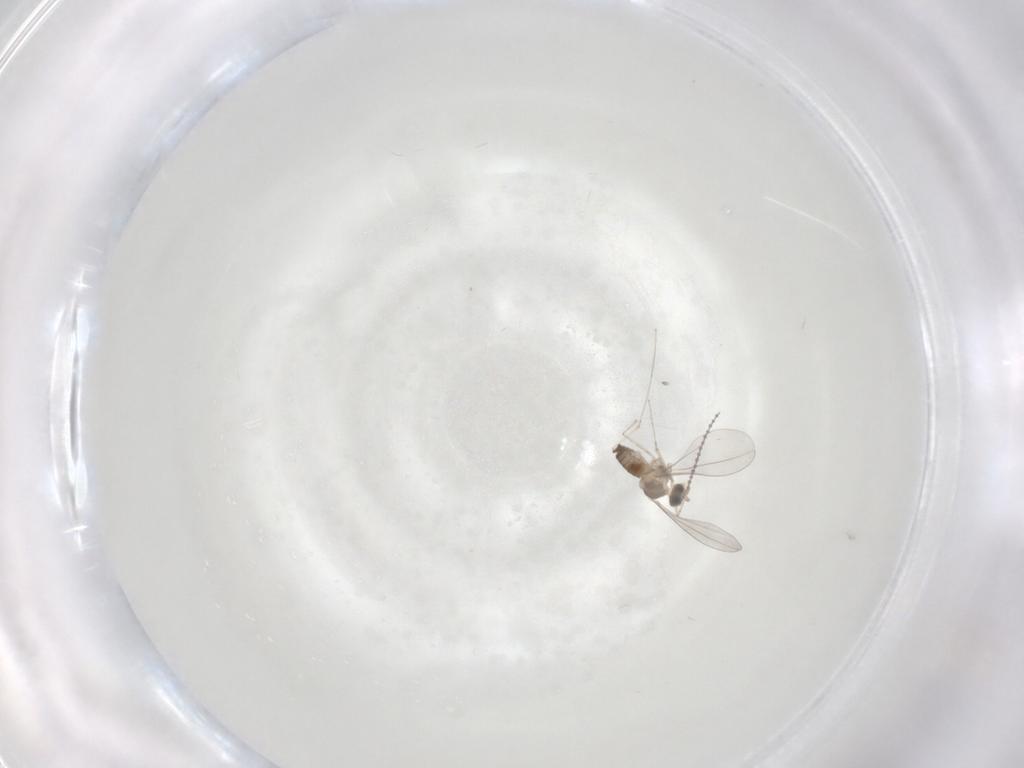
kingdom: Animalia
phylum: Arthropoda
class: Insecta
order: Diptera
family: Cecidomyiidae
